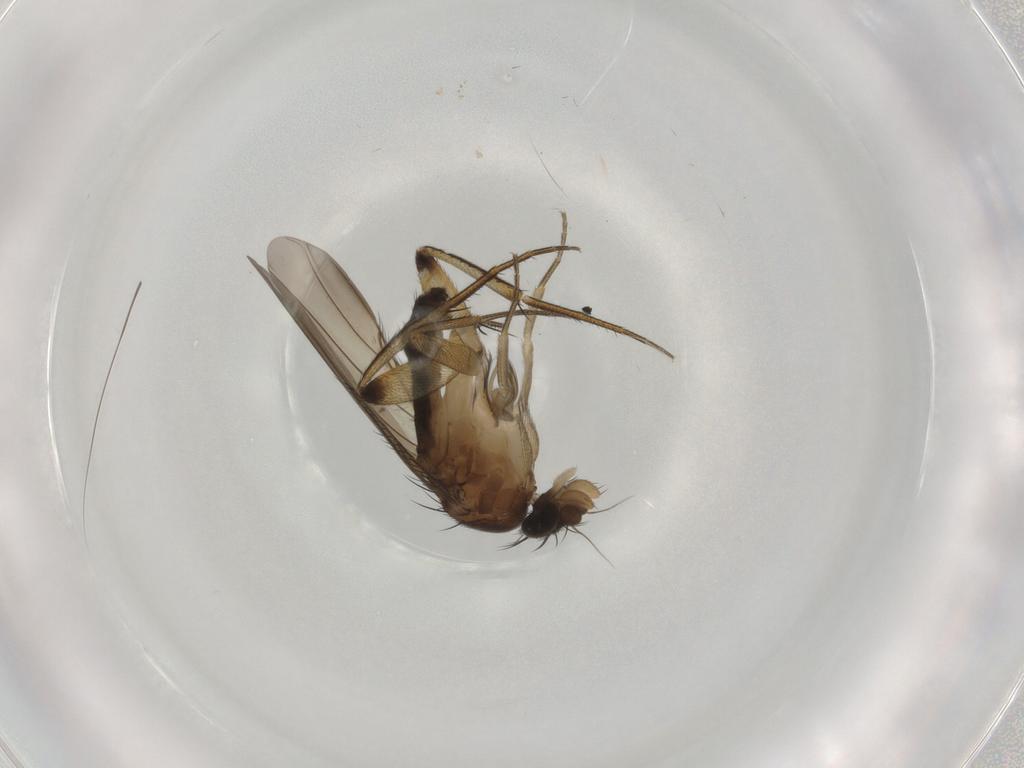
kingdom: Animalia
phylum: Arthropoda
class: Insecta
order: Diptera
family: Phoridae
